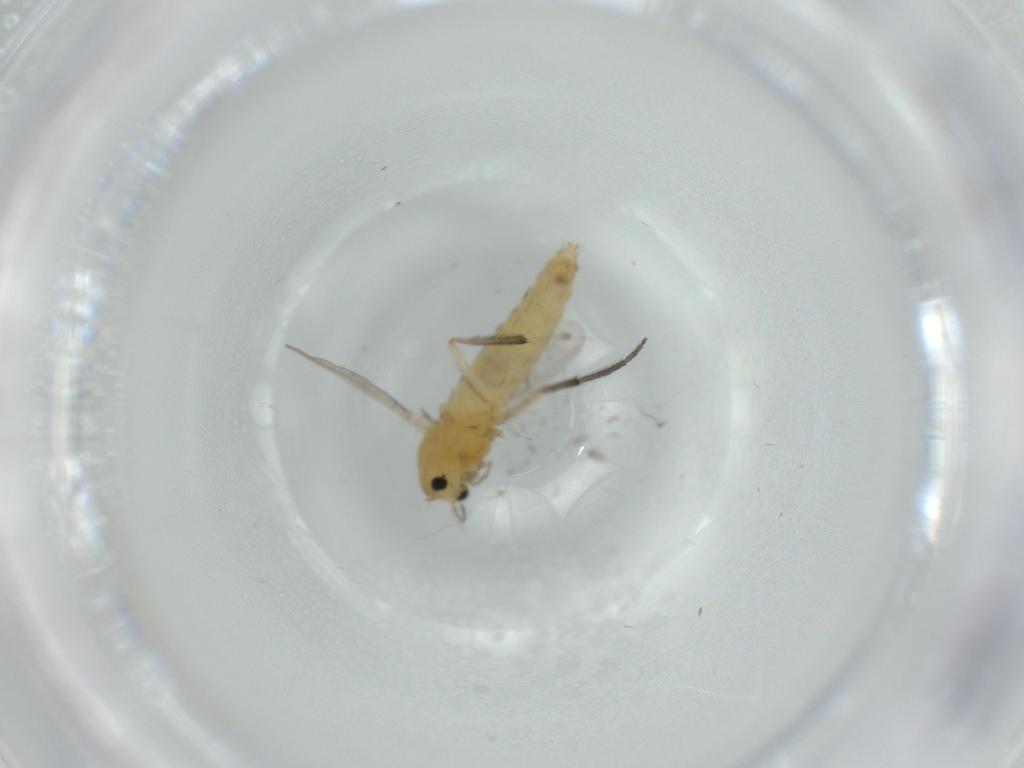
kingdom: Animalia
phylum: Arthropoda
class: Insecta
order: Diptera
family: Chironomidae
